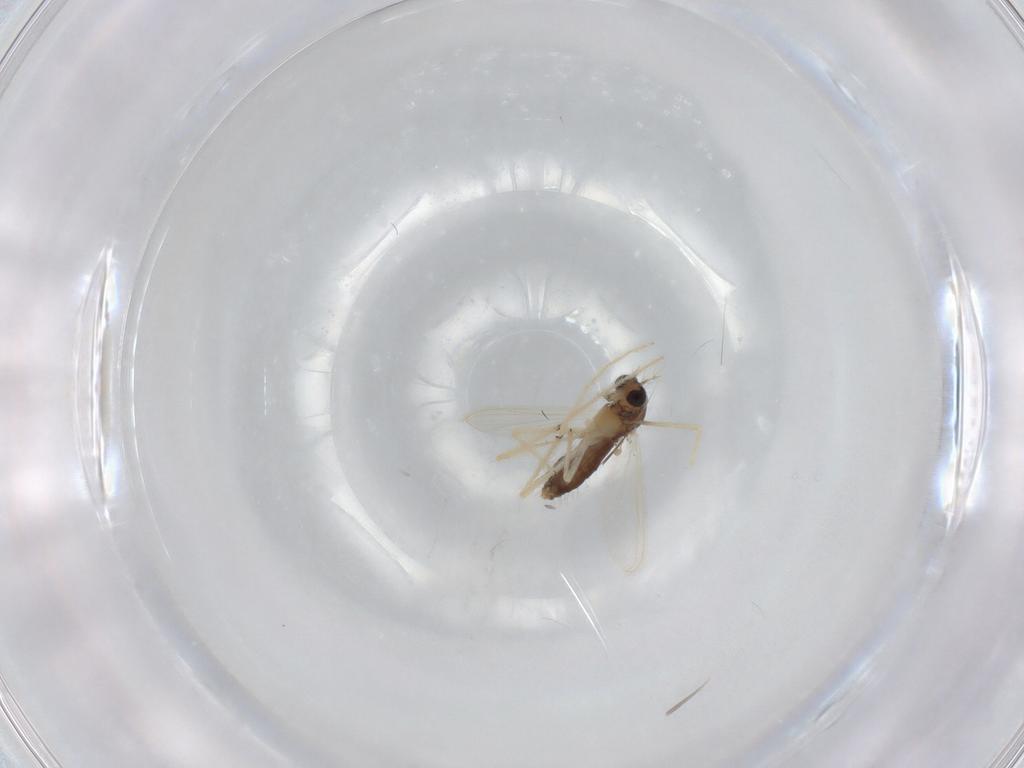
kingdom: Animalia
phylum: Arthropoda
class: Insecta
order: Diptera
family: Chironomidae
